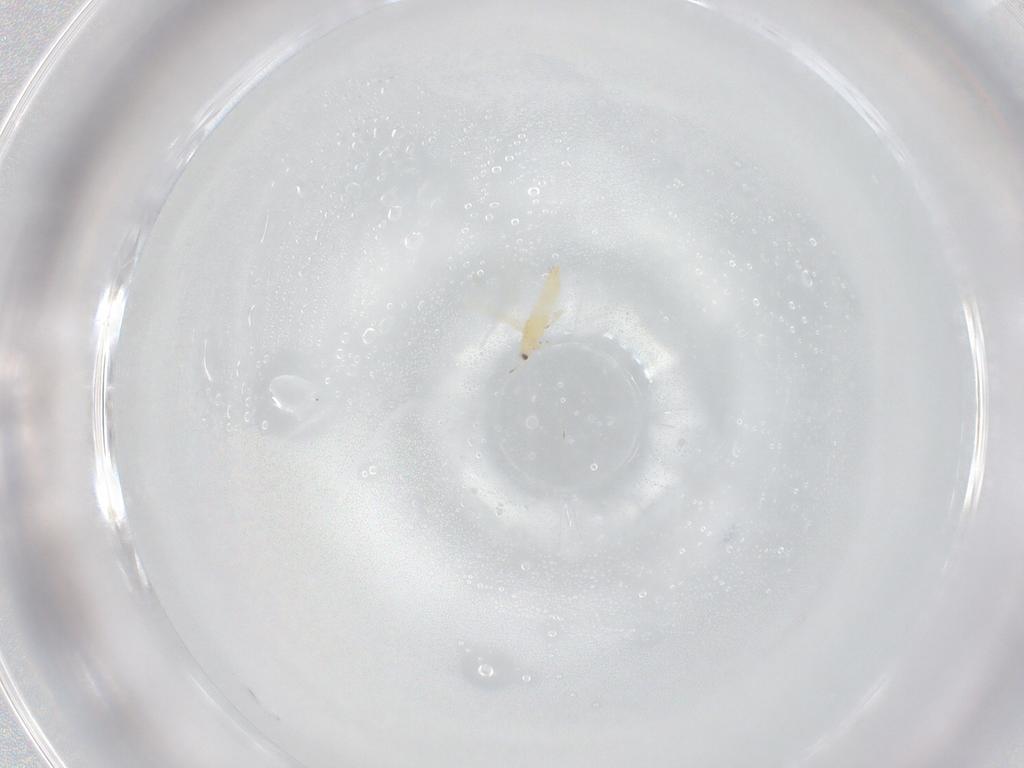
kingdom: Animalia
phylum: Arthropoda
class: Insecta
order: Thysanoptera
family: Thripidae
